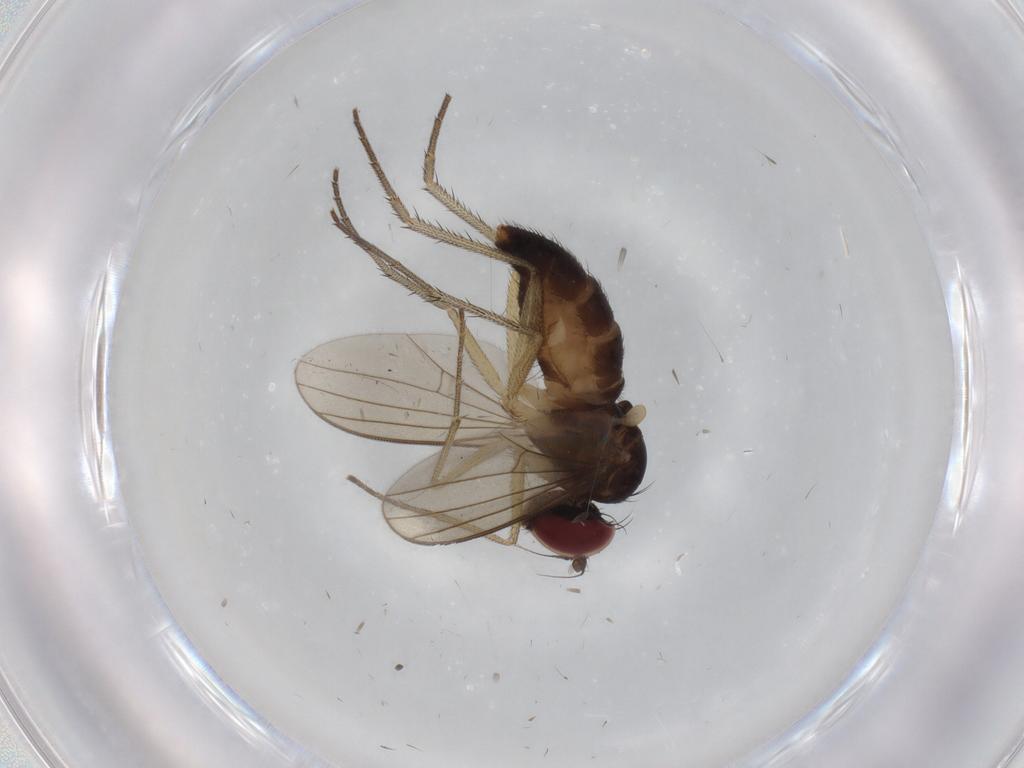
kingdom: Animalia
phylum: Arthropoda
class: Insecta
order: Diptera
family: Dolichopodidae
